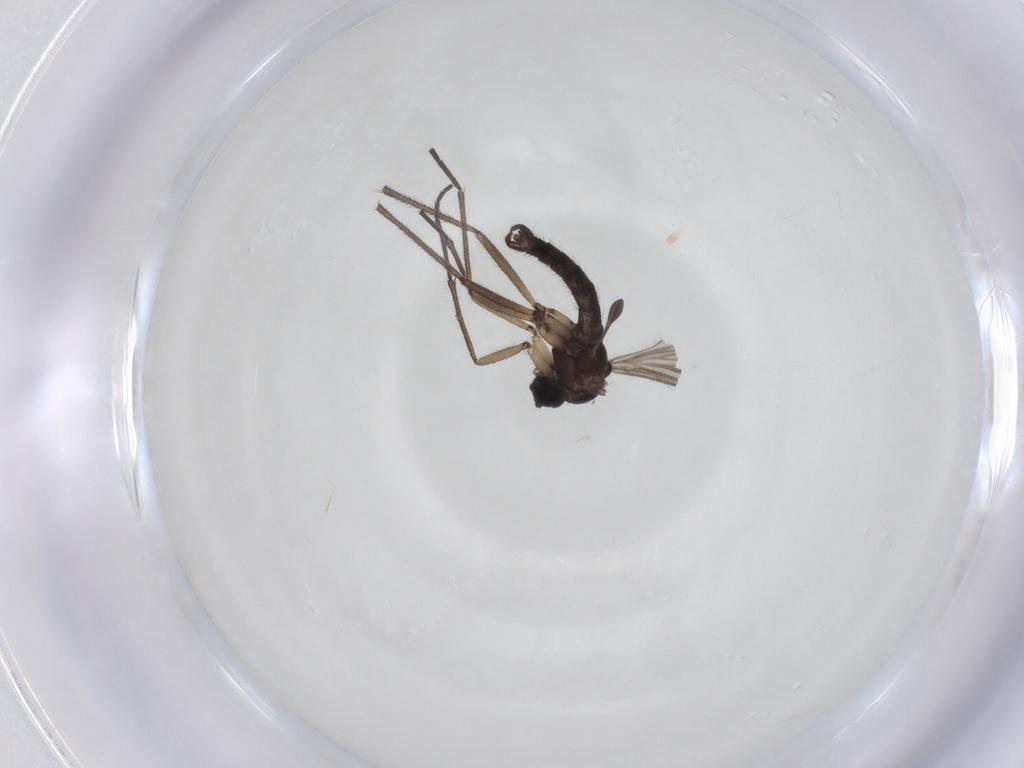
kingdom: Animalia
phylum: Arthropoda
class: Insecta
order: Diptera
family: Sciaridae
